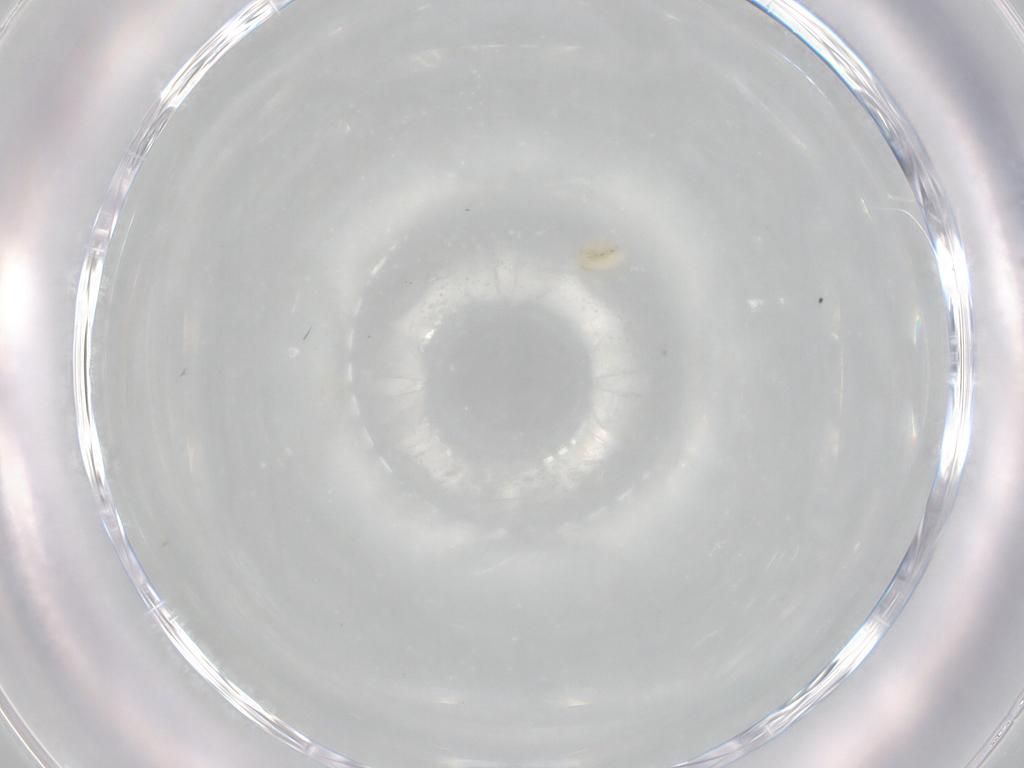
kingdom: Animalia
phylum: Arthropoda
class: Arachnida
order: Trombidiformes
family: Trombidiidae
